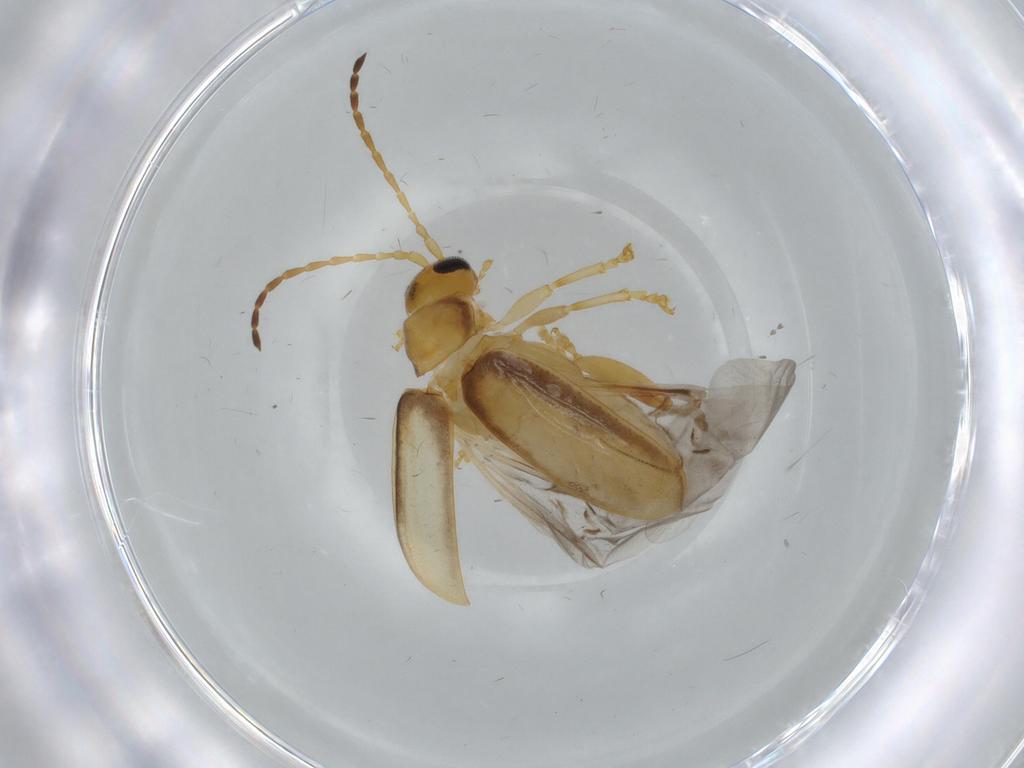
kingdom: Animalia
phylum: Arthropoda
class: Insecta
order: Coleoptera
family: Chrysomelidae
